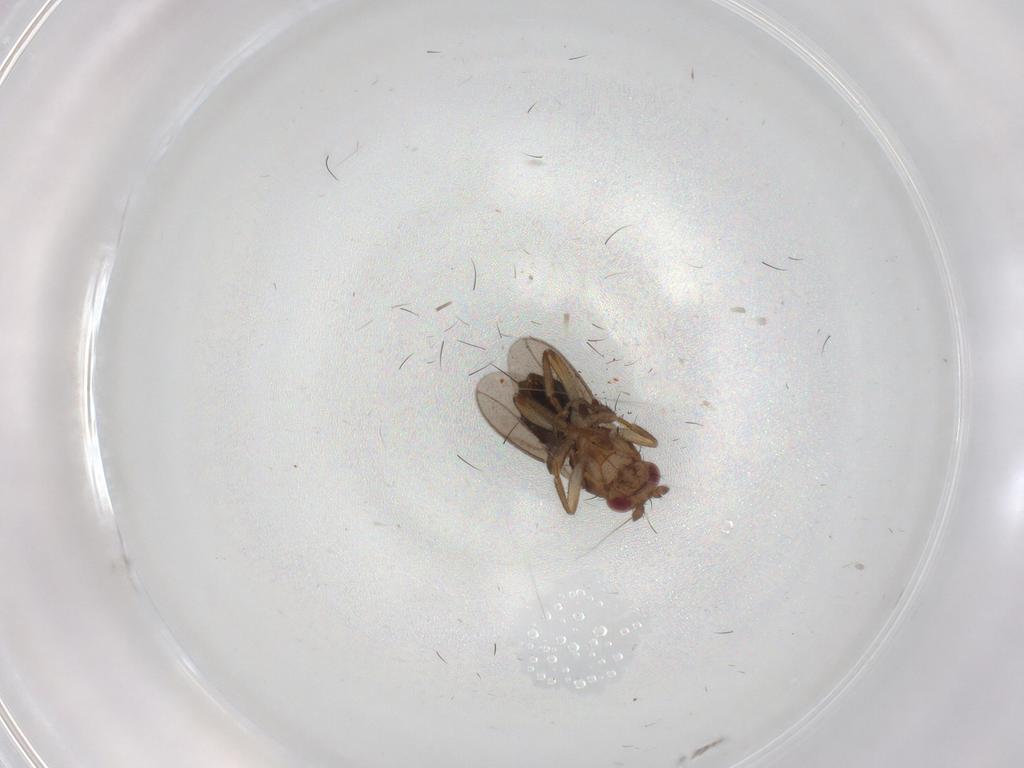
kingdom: Animalia
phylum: Arthropoda
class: Insecta
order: Diptera
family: Sphaeroceridae
